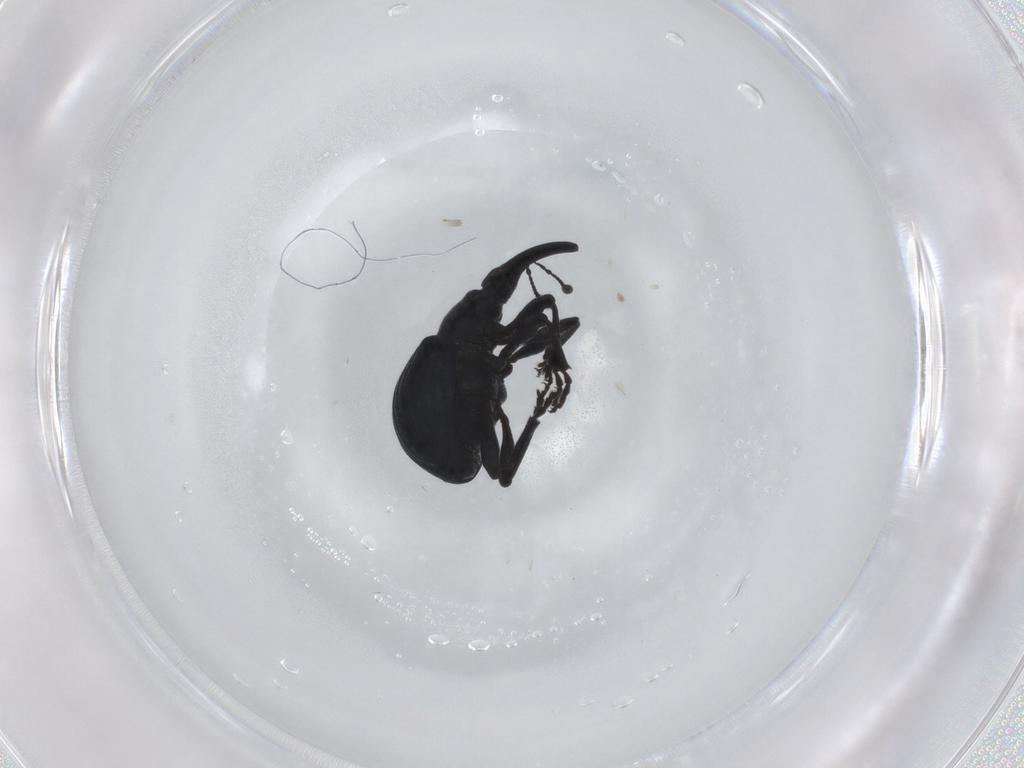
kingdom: Animalia
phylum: Arthropoda
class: Insecta
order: Coleoptera
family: Brentidae
